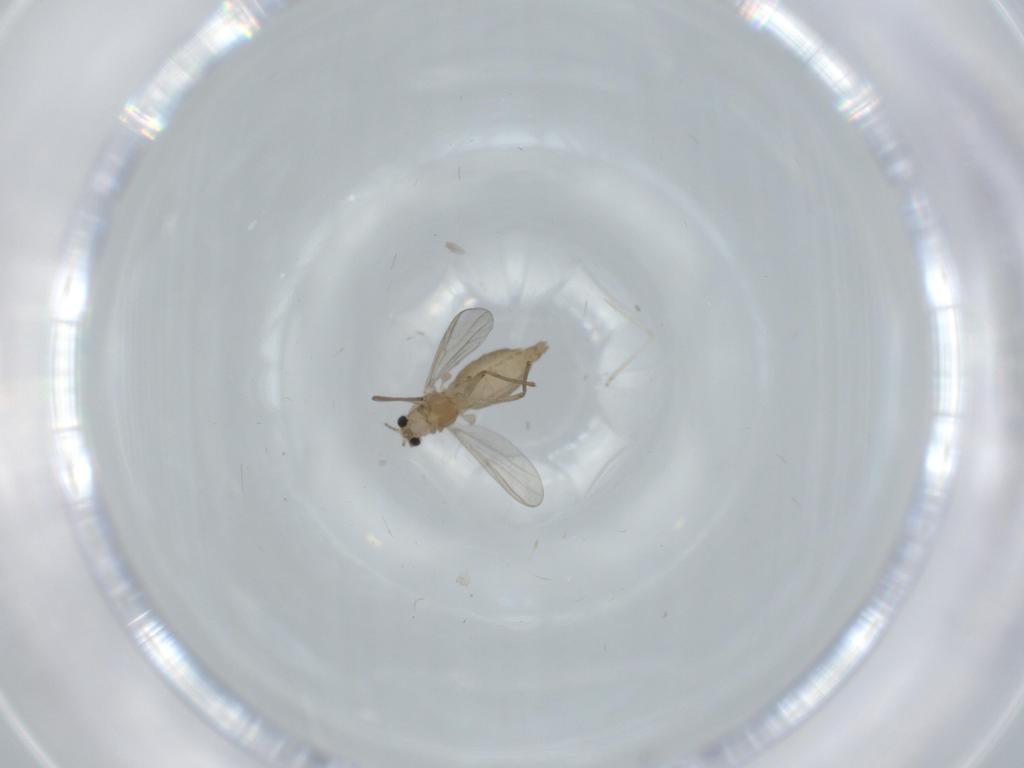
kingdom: Animalia
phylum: Arthropoda
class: Insecta
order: Diptera
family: Chironomidae
